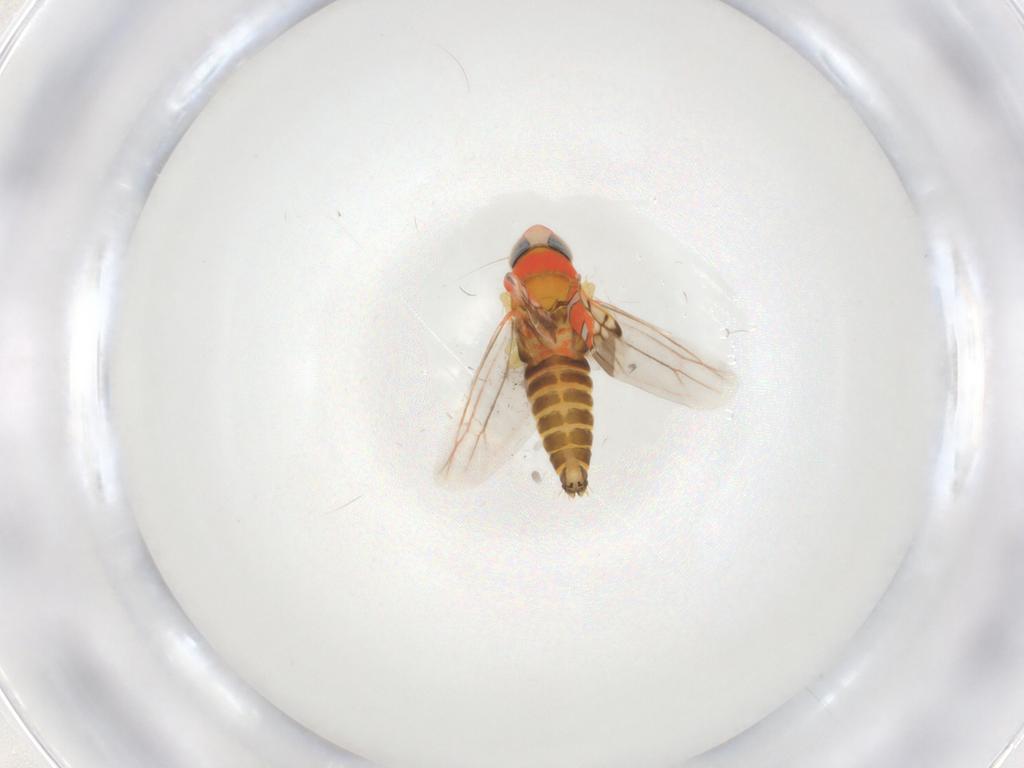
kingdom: Animalia
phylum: Arthropoda
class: Insecta
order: Hemiptera
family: Cicadellidae
